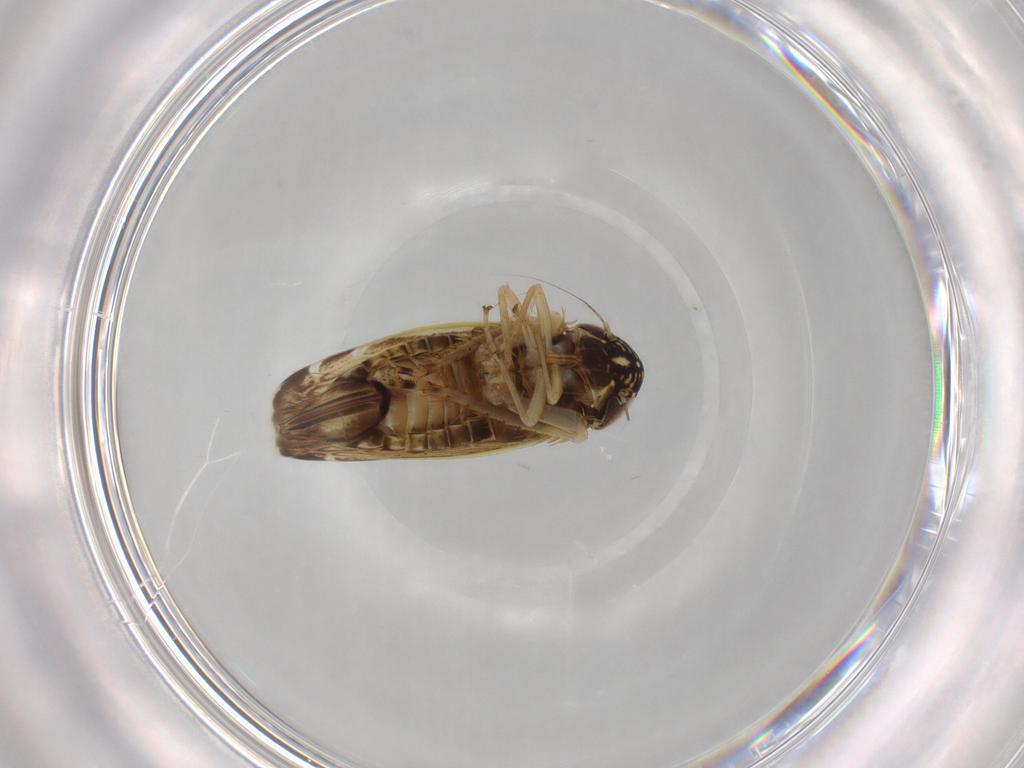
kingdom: Animalia
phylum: Arthropoda
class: Insecta
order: Hemiptera
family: Cicadellidae
